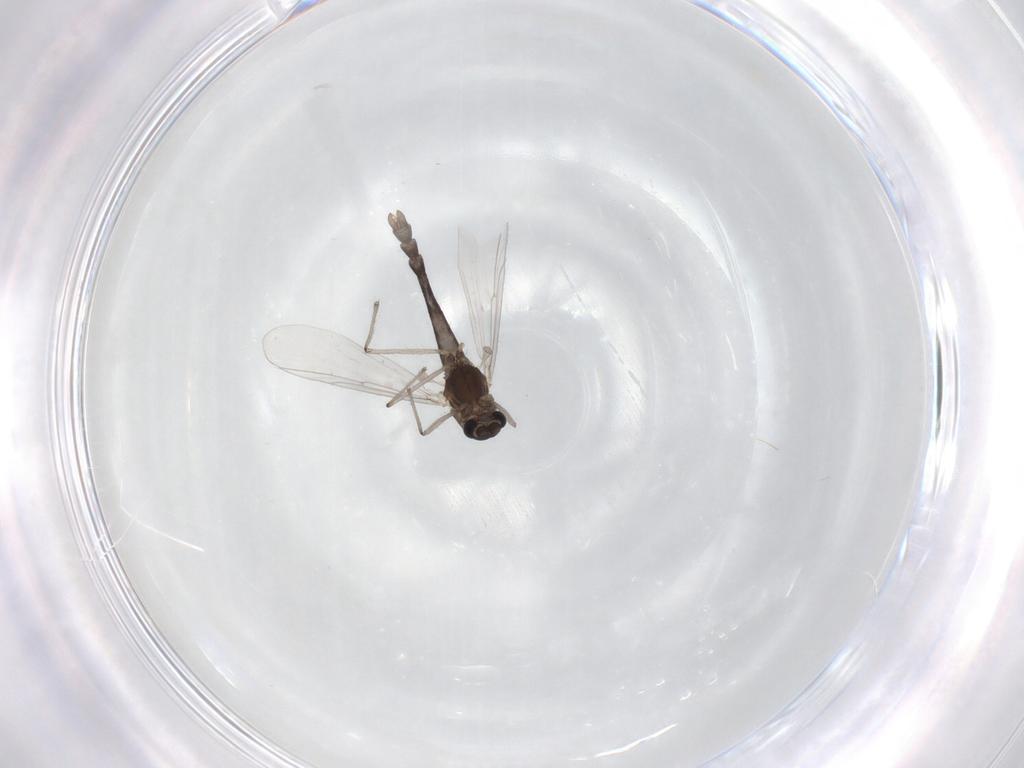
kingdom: Animalia
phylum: Arthropoda
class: Insecta
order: Diptera
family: Chironomidae
